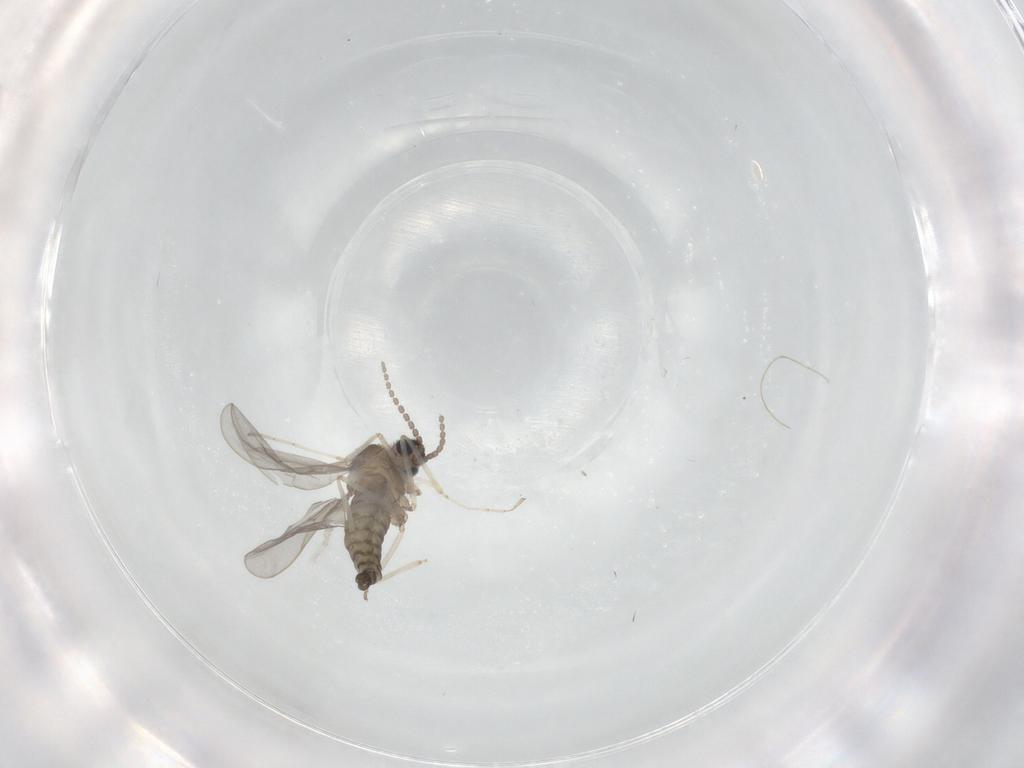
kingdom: Animalia
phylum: Arthropoda
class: Insecta
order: Diptera
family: Cecidomyiidae
